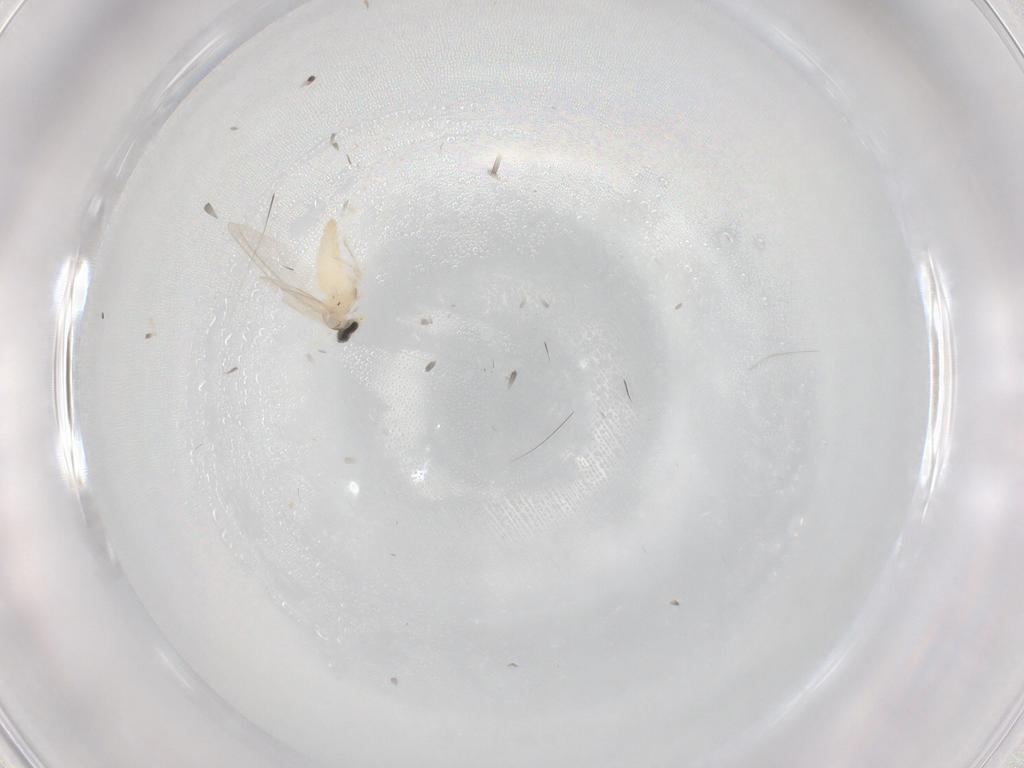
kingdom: Animalia
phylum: Arthropoda
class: Insecta
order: Diptera
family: Cecidomyiidae
